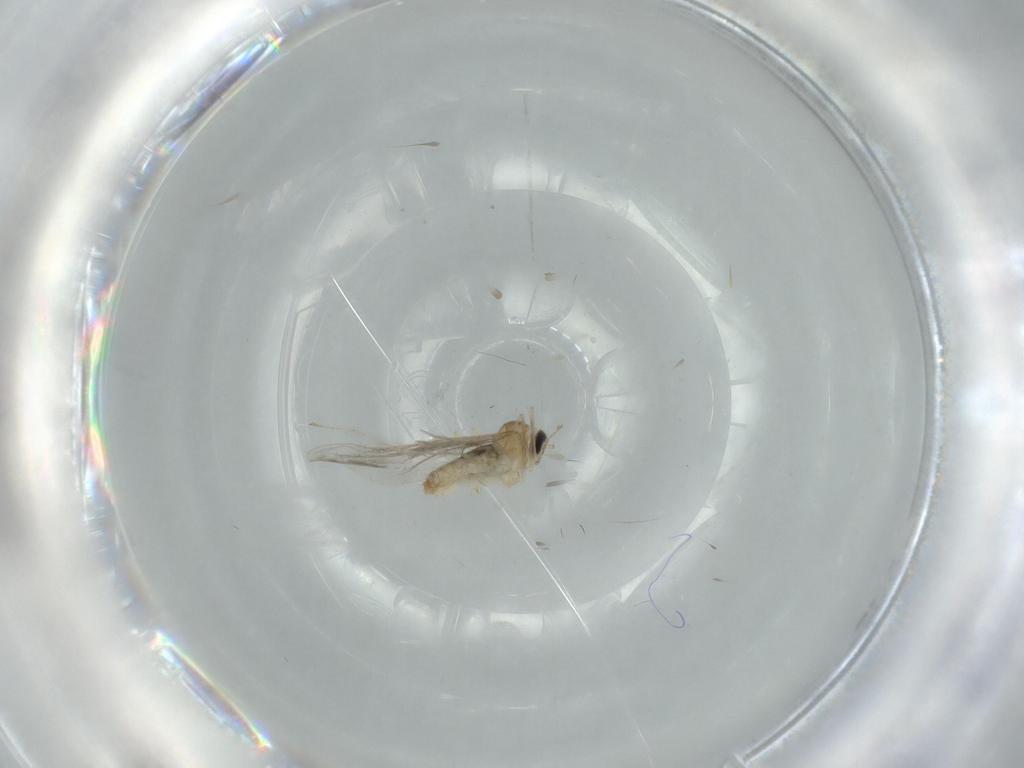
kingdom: Animalia
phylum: Arthropoda
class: Insecta
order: Diptera
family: Cecidomyiidae
